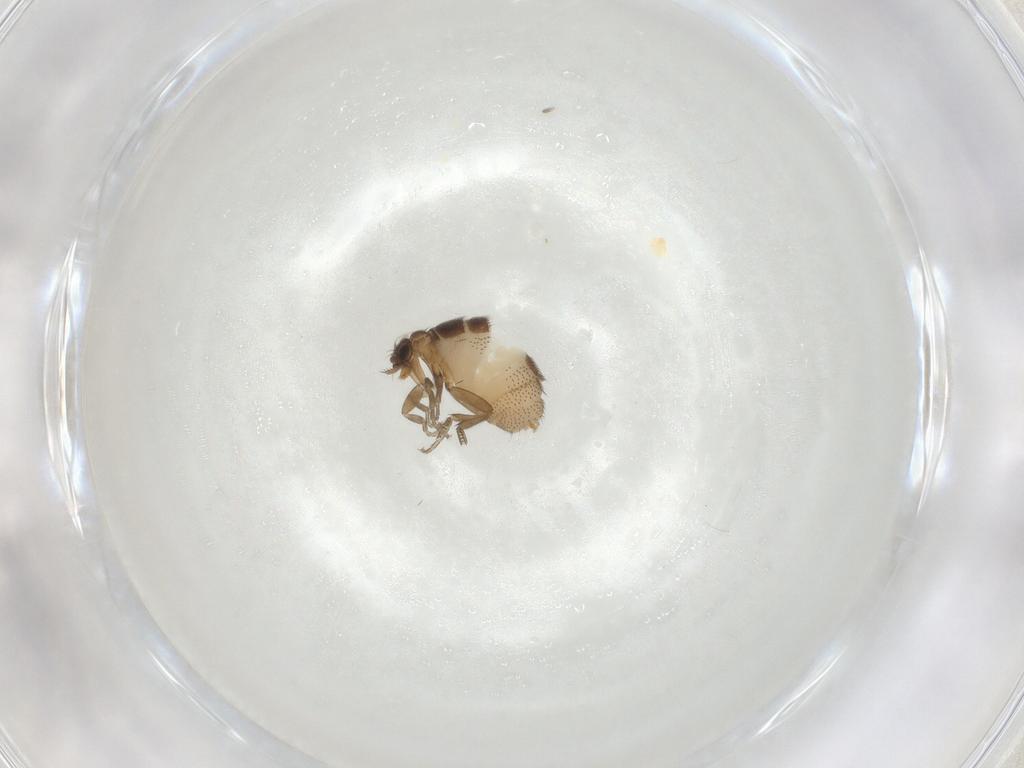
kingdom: Animalia
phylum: Arthropoda
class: Insecta
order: Diptera
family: Phoridae
